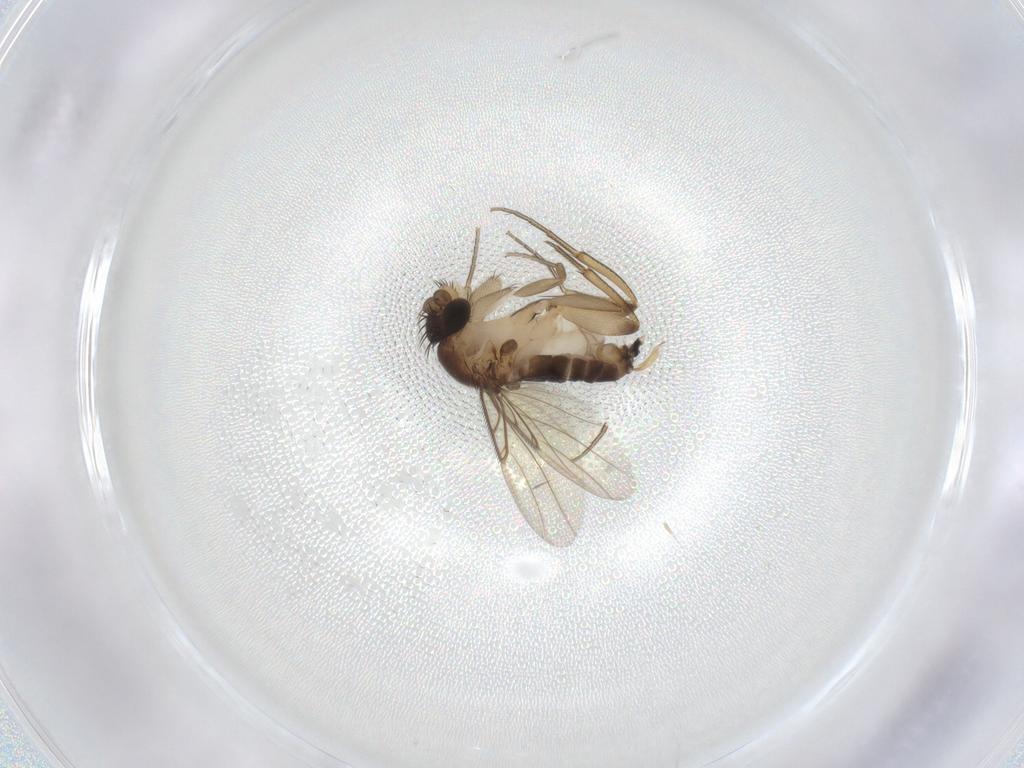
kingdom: Animalia
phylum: Arthropoda
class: Insecta
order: Diptera
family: Phoridae
